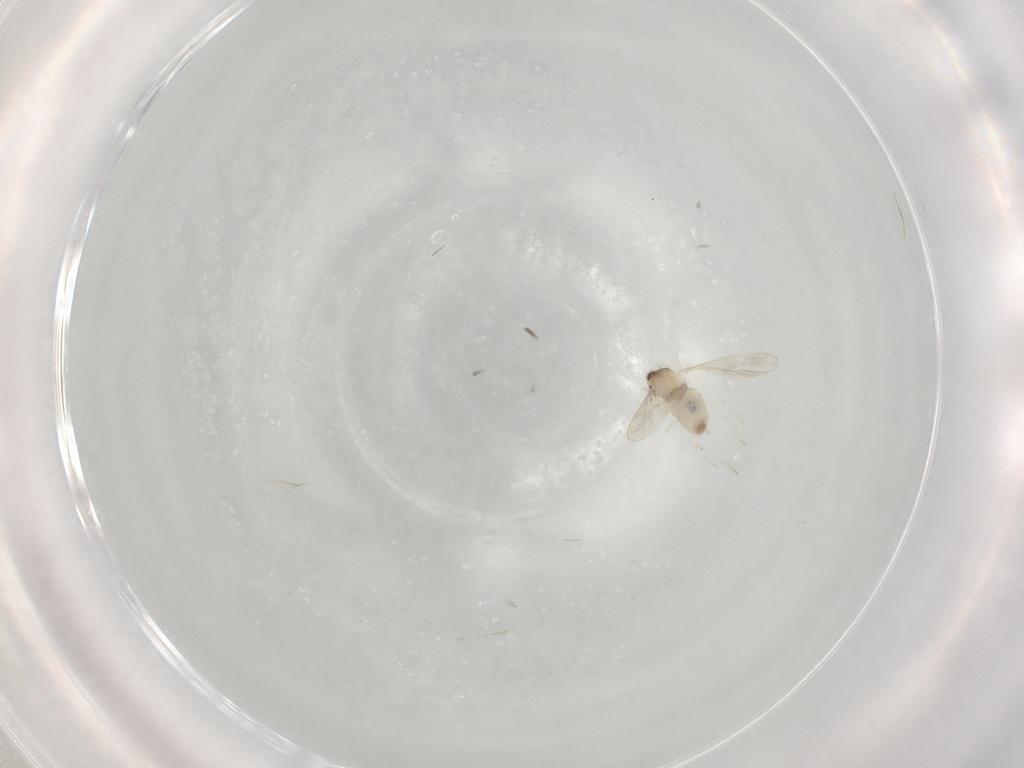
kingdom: Animalia
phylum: Arthropoda
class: Insecta
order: Diptera
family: Cecidomyiidae
